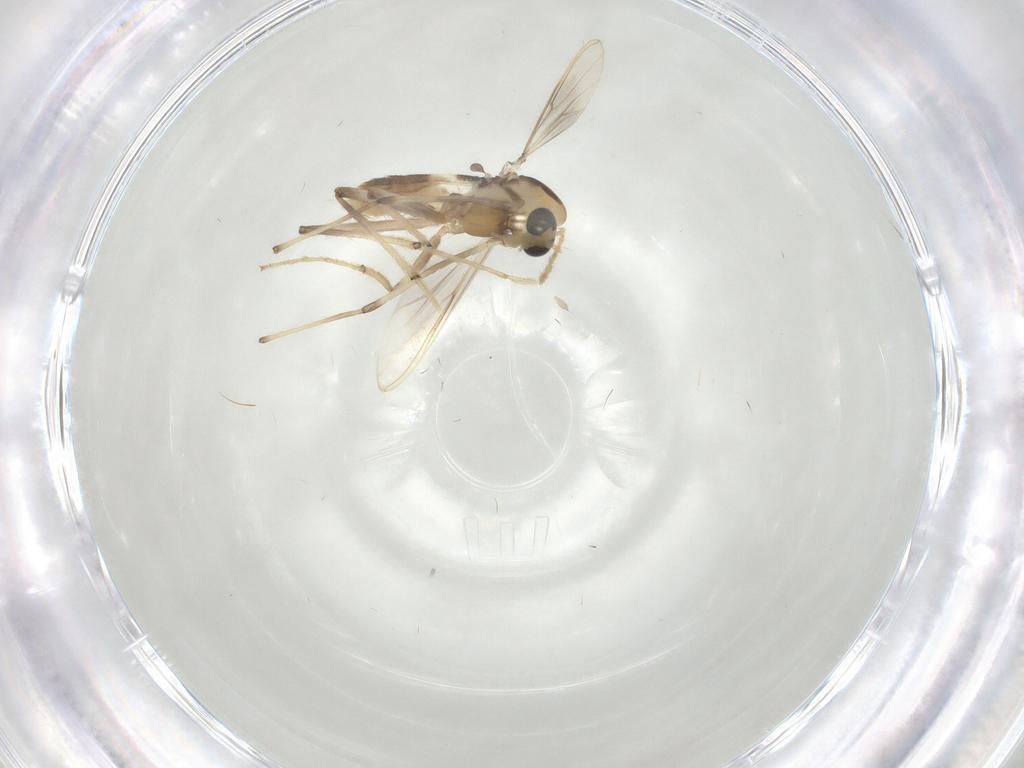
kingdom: Animalia
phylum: Arthropoda
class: Insecta
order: Diptera
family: Chironomidae
